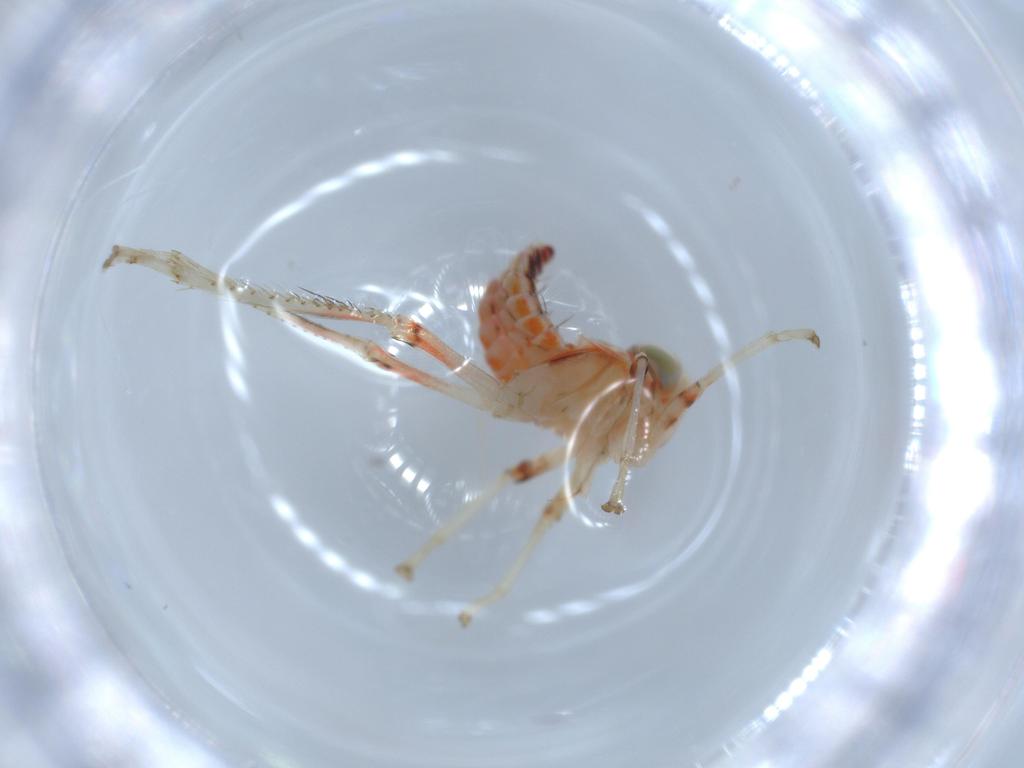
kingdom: Animalia
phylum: Arthropoda
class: Insecta
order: Hemiptera
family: Cicadellidae
